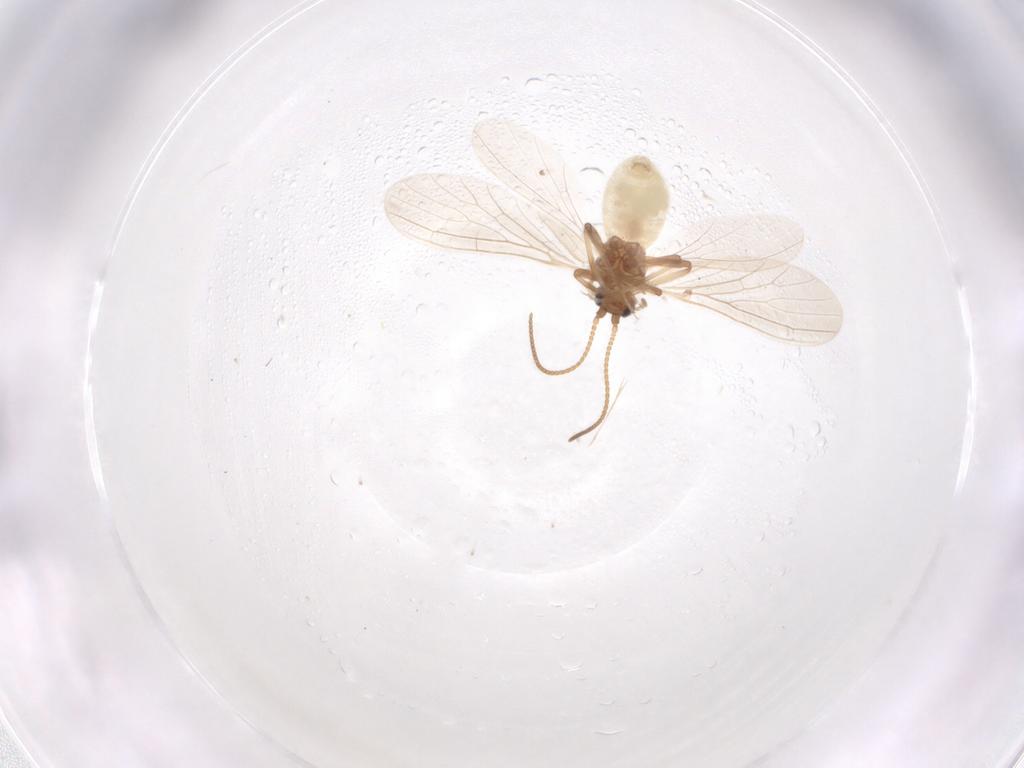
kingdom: Animalia
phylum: Arthropoda
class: Insecta
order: Neuroptera
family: Coniopterygidae
